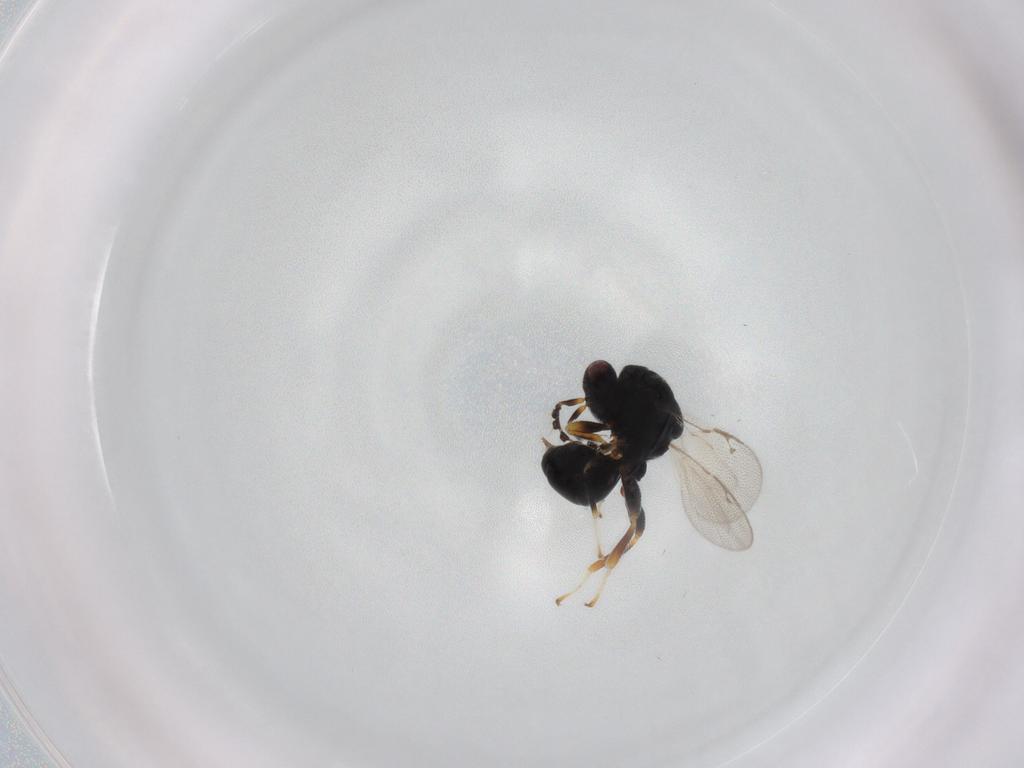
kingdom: Animalia
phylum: Arthropoda
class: Insecta
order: Hymenoptera
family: Eurytomidae
